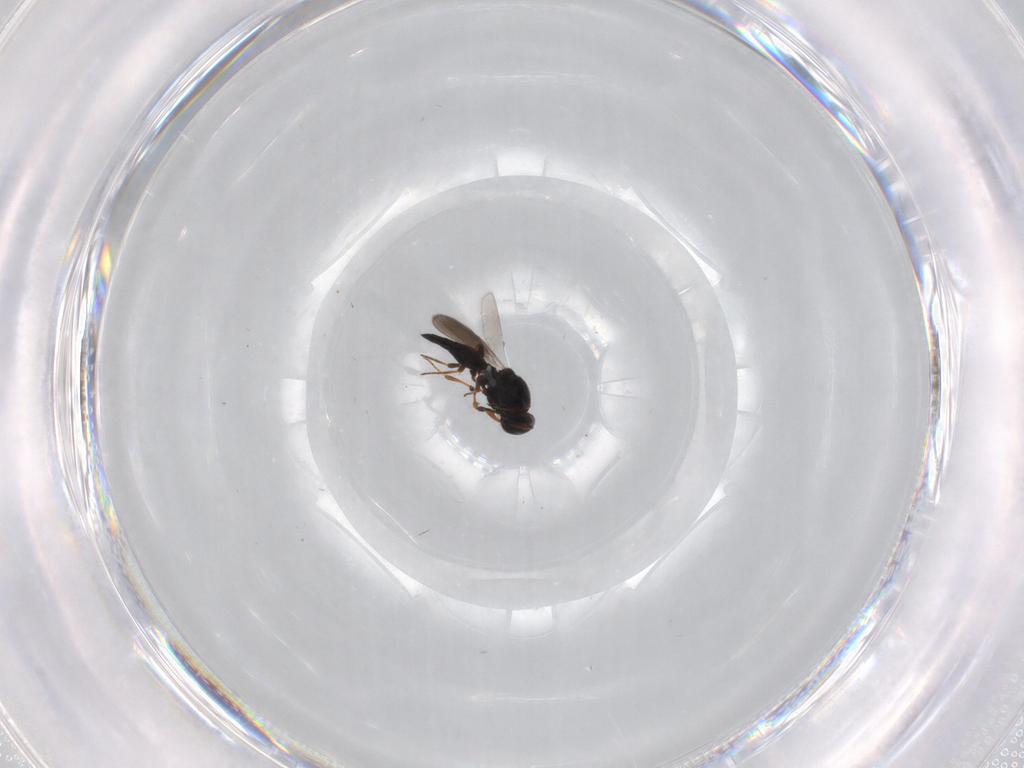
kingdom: Animalia
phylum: Arthropoda
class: Insecta
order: Hymenoptera
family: Platygastridae
